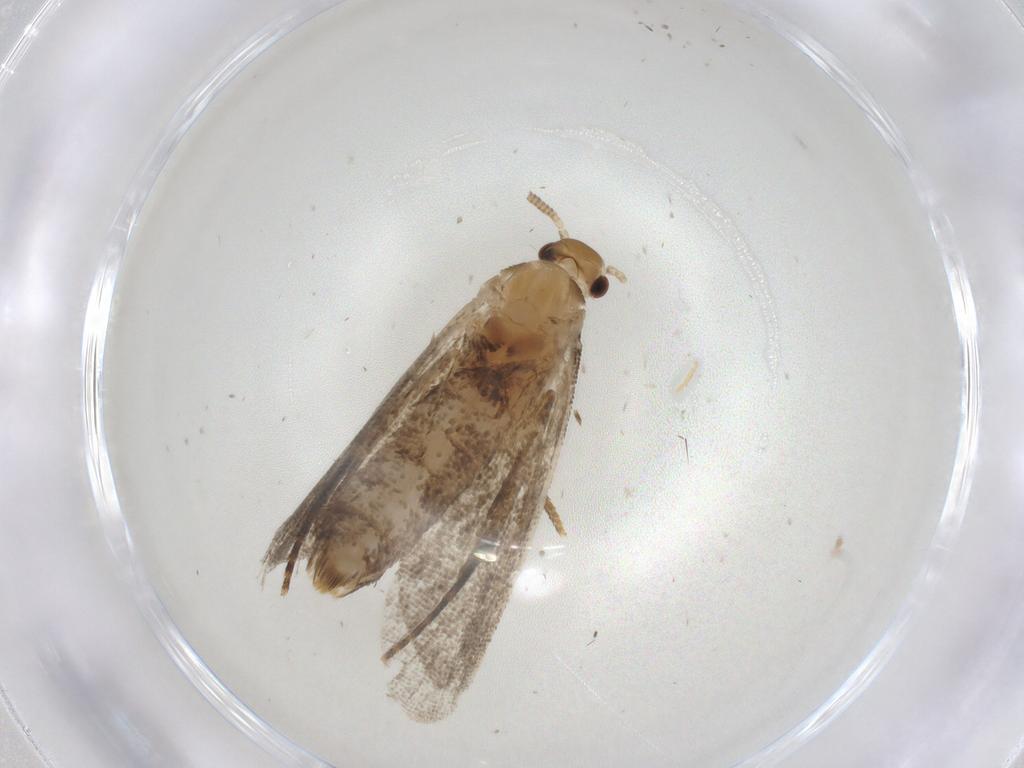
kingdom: Animalia
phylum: Arthropoda
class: Insecta
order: Lepidoptera
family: Dryadaulidae
